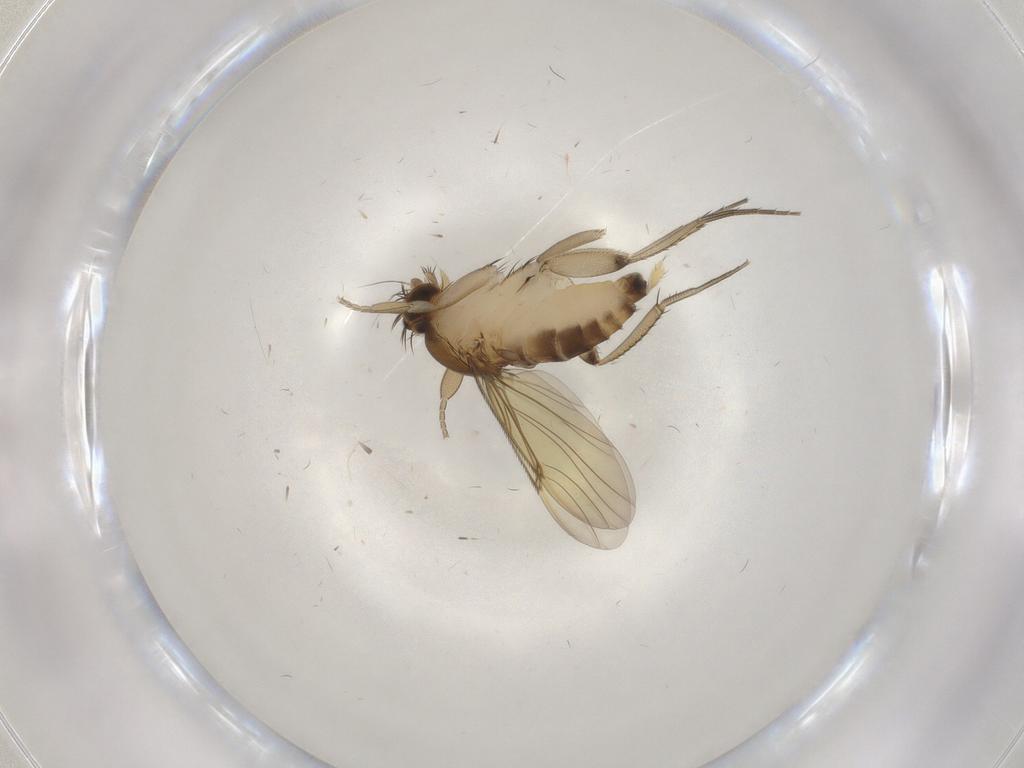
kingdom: Animalia
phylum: Arthropoda
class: Insecta
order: Diptera
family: Phoridae
